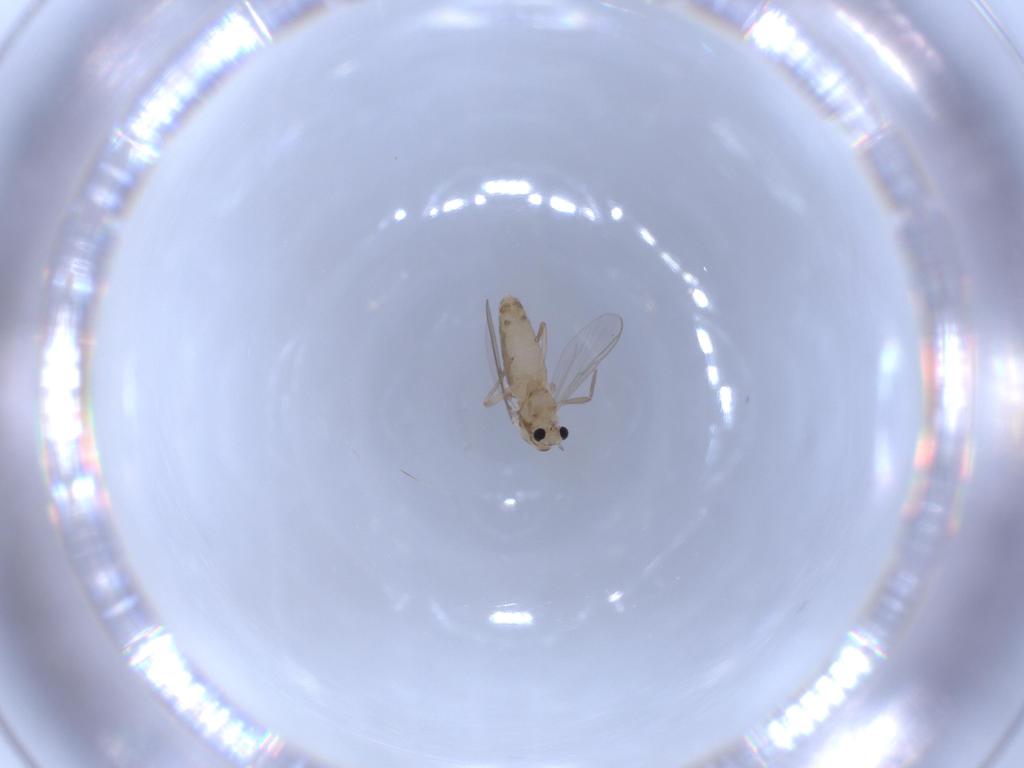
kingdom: Animalia
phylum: Arthropoda
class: Insecta
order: Diptera
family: Chironomidae
